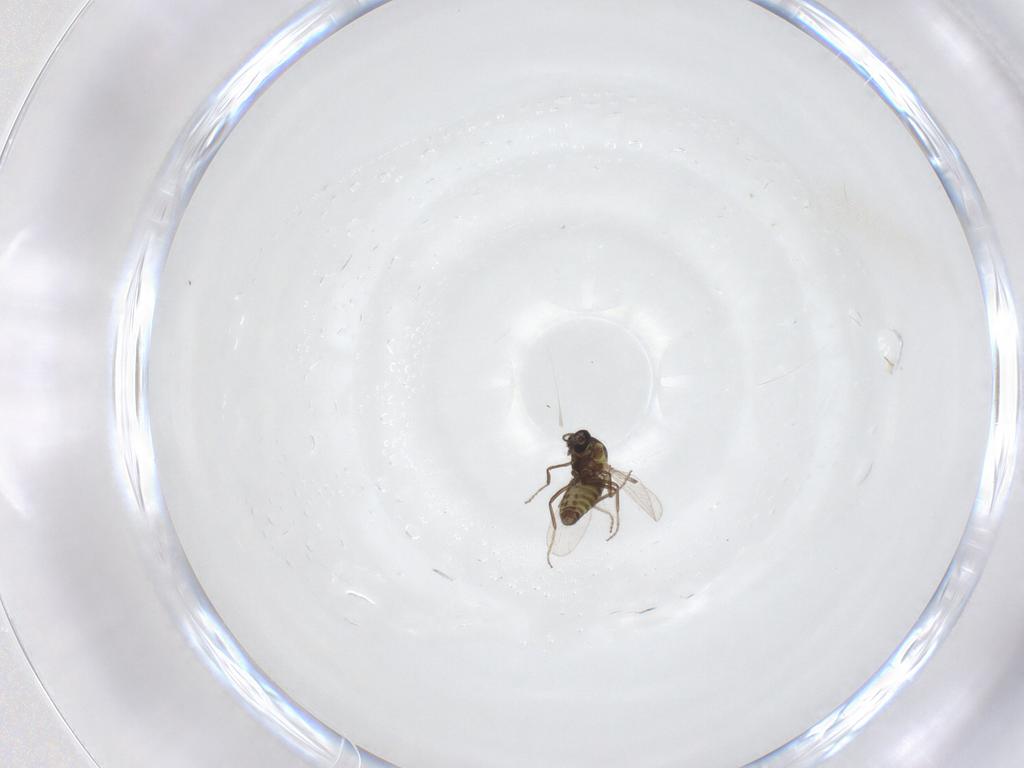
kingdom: Animalia
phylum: Arthropoda
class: Insecta
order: Diptera
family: Ceratopogonidae
